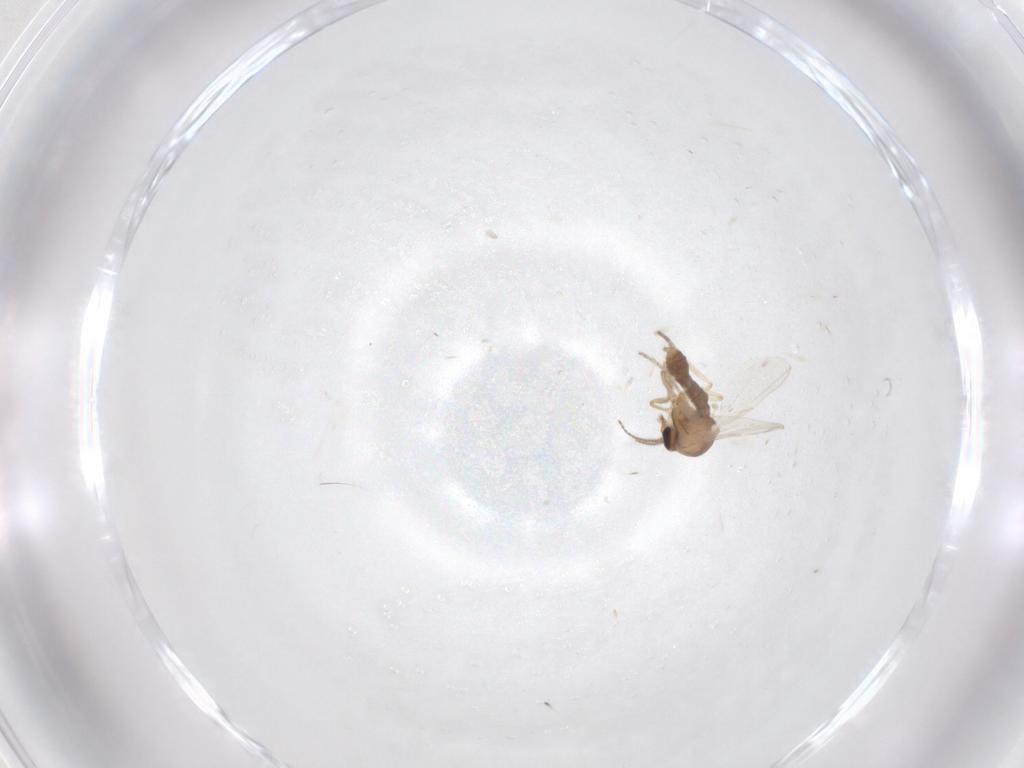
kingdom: Animalia
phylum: Arthropoda
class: Insecta
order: Diptera
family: Ceratopogonidae
